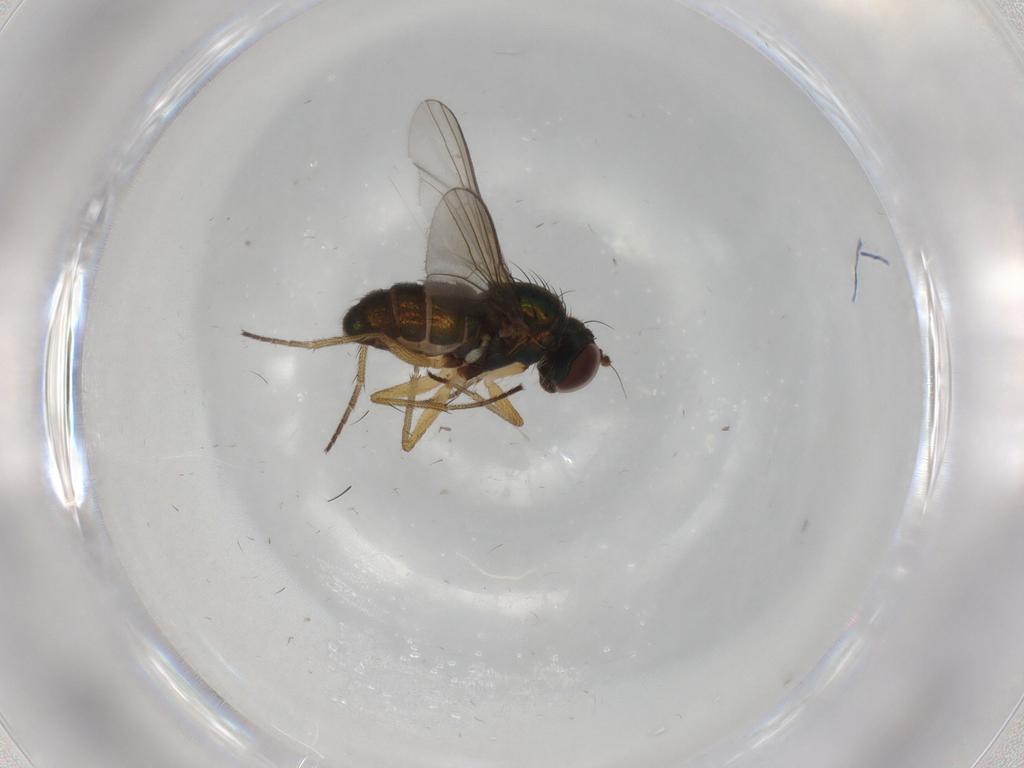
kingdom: Animalia
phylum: Arthropoda
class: Insecta
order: Diptera
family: Dolichopodidae
